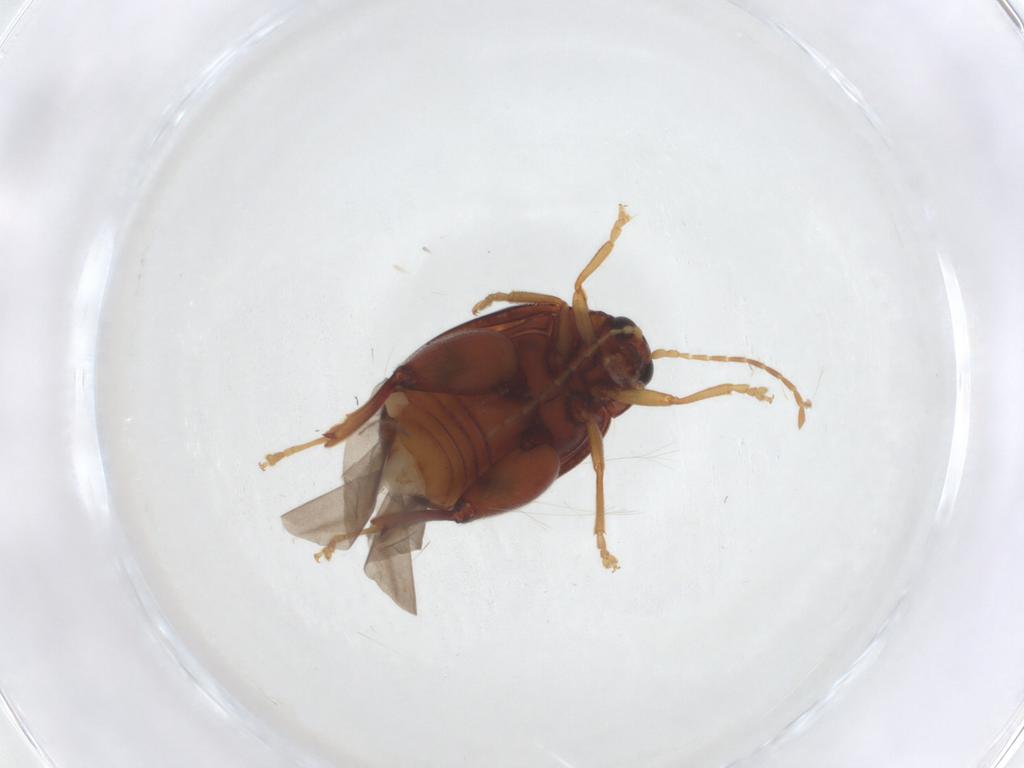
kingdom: Animalia
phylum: Arthropoda
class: Insecta
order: Coleoptera
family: Chrysomelidae
